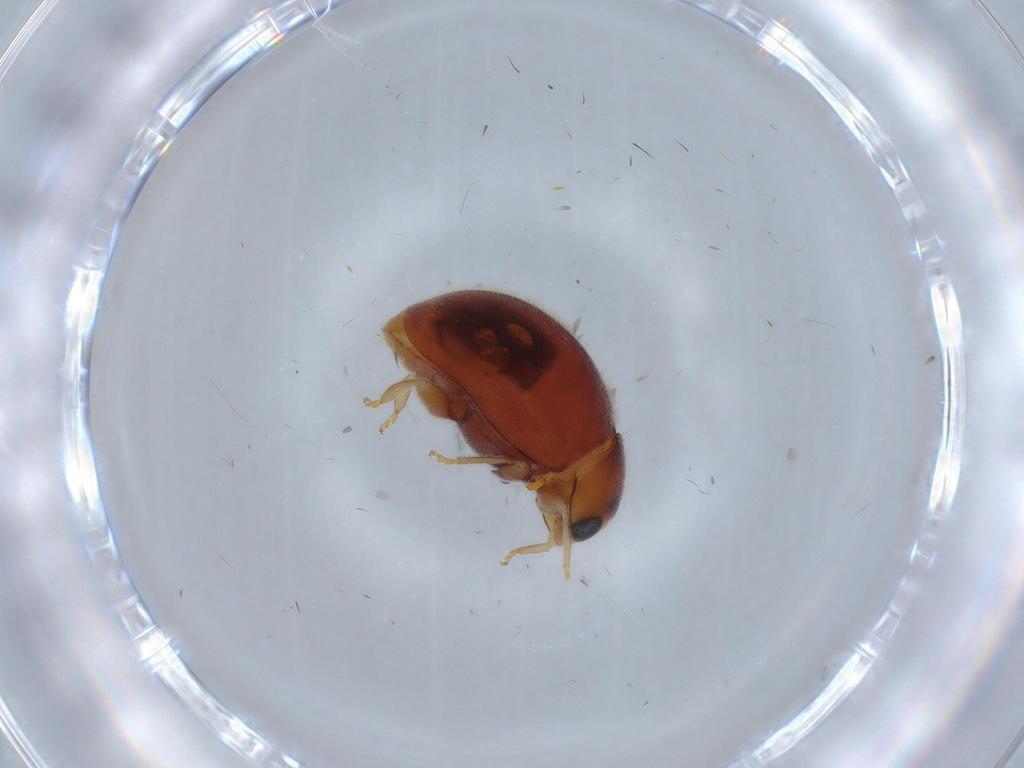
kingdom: Animalia
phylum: Arthropoda
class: Insecta
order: Coleoptera
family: Coccinellidae
